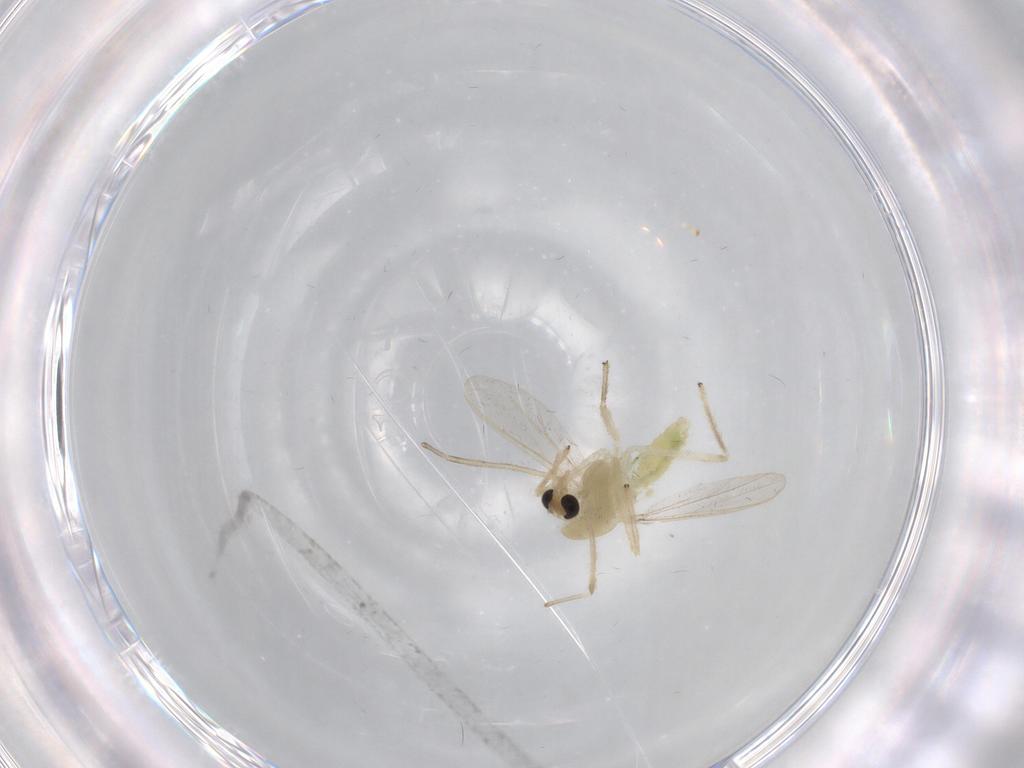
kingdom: Animalia
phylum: Arthropoda
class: Insecta
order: Diptera
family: Chironomidae
